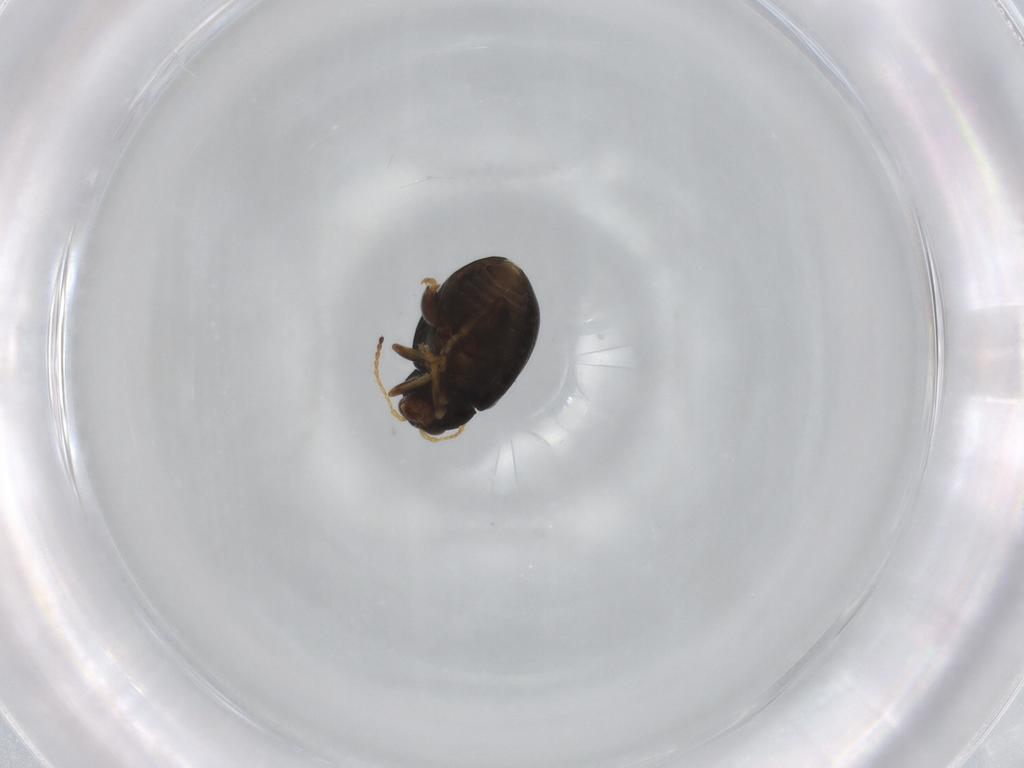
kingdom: Animalia
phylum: Arthropoda
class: Insecta
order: Coleoptera
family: Chrysomelidae
